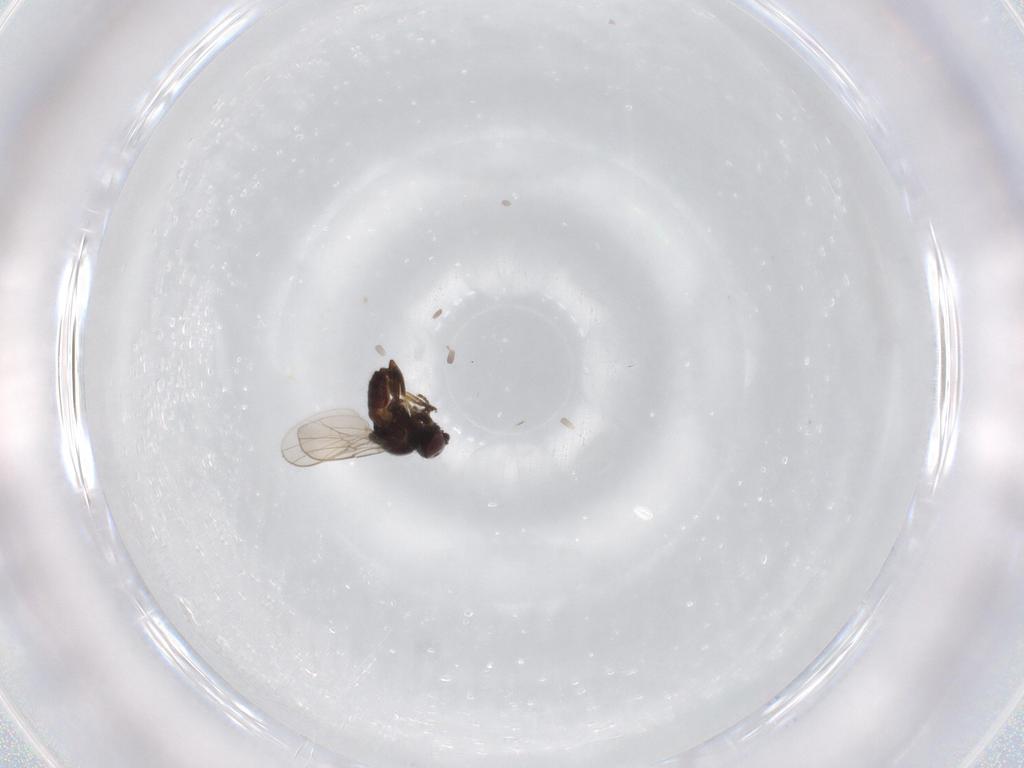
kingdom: Animalia
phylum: Arthropoda
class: Insecta
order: Diptera
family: Chloropidae
